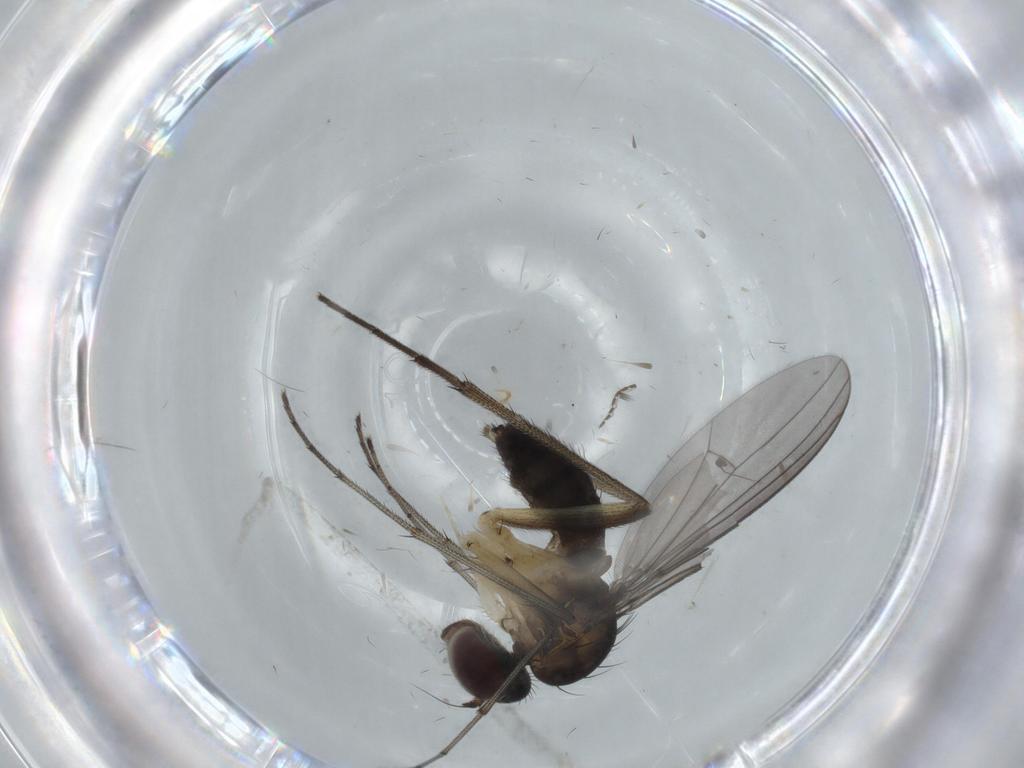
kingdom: Animalia
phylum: Arthropoda
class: Insecta
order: Diptera
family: Dolichopodidae
